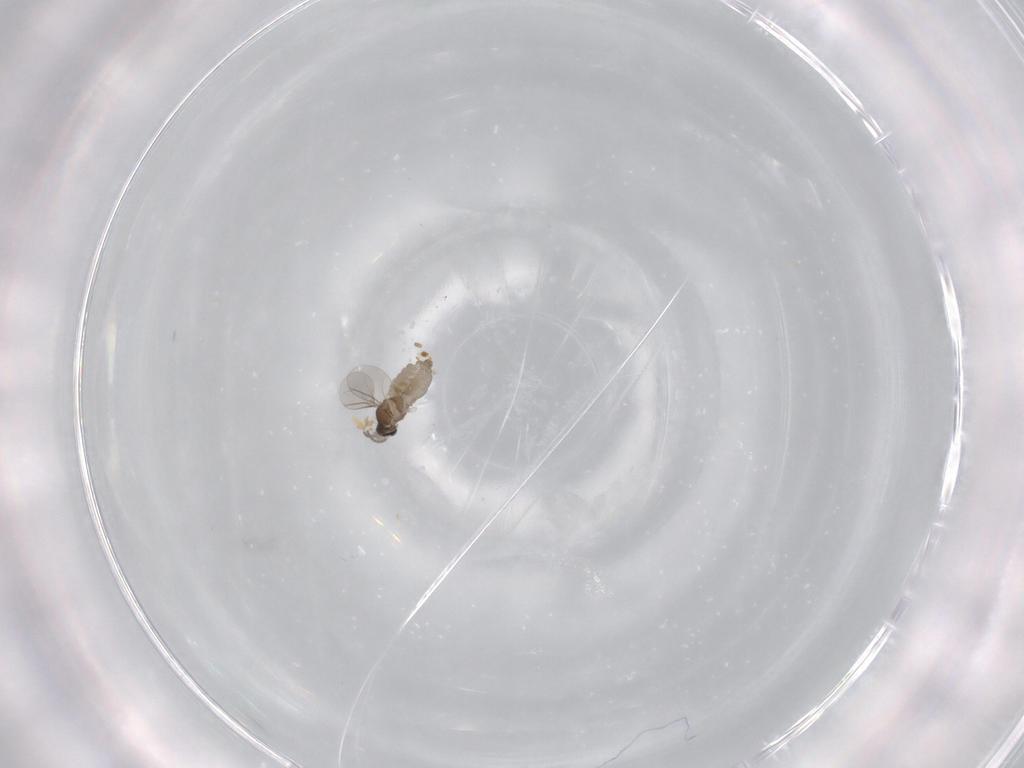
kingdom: Animalia
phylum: Arthropoda
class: Insecta
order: Diptera
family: Cecidomyiidae
